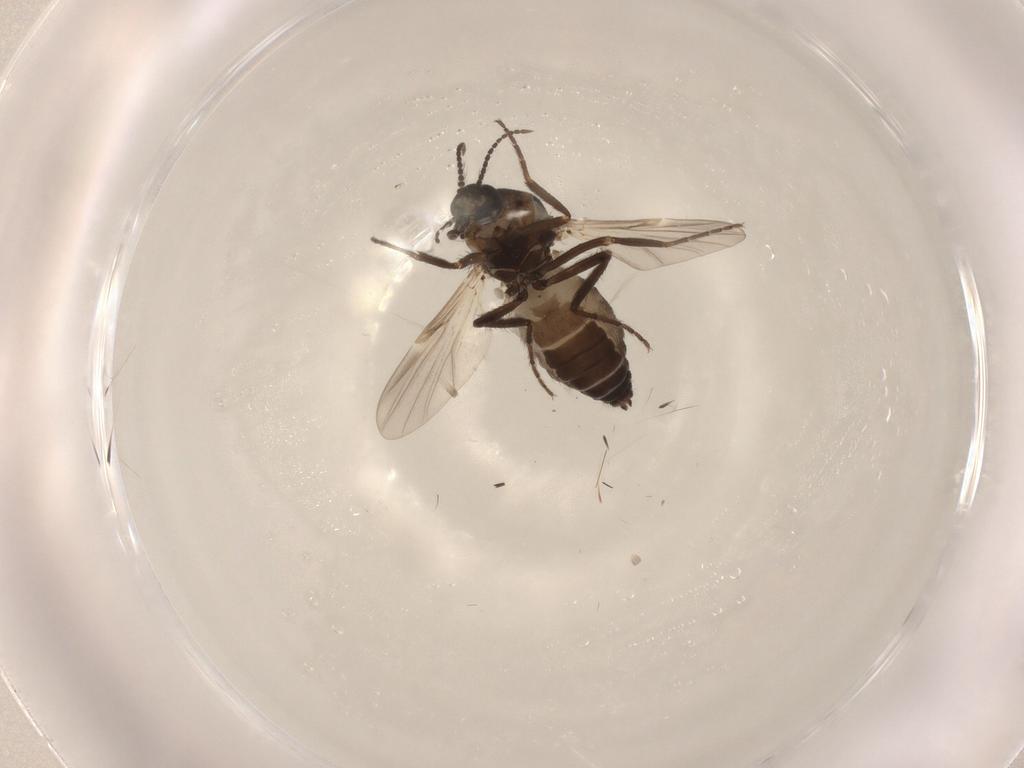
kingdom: Animalia
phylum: Arthropoda
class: Insecta
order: Diptera
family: Ceratopogonidae
